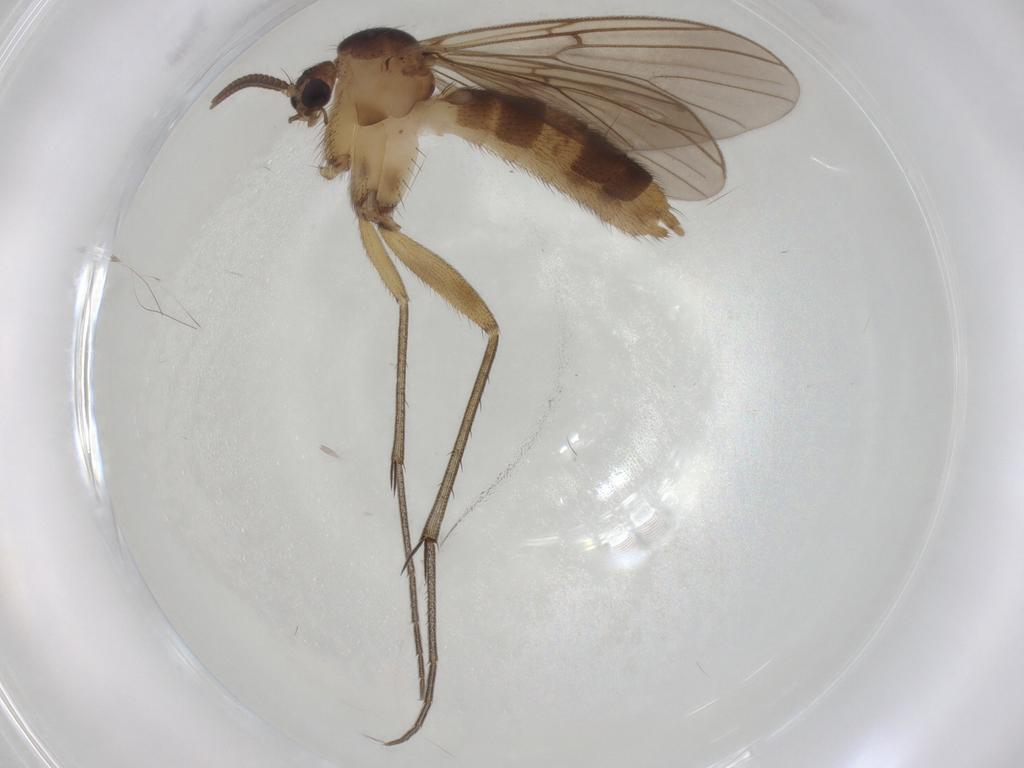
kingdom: Animalia
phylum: Arthropoda
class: Insecta
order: Diptera
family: Mycetophilidae
